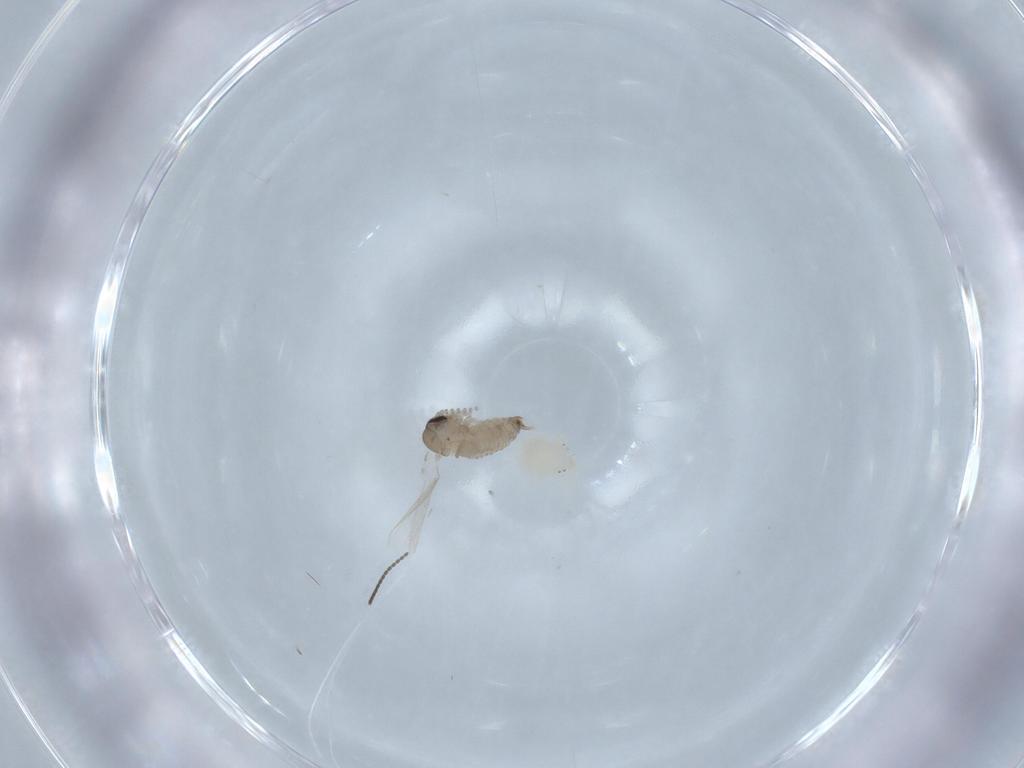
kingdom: Animalia
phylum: Arthropoda
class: Insecta
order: Diptera
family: Psychodidae
